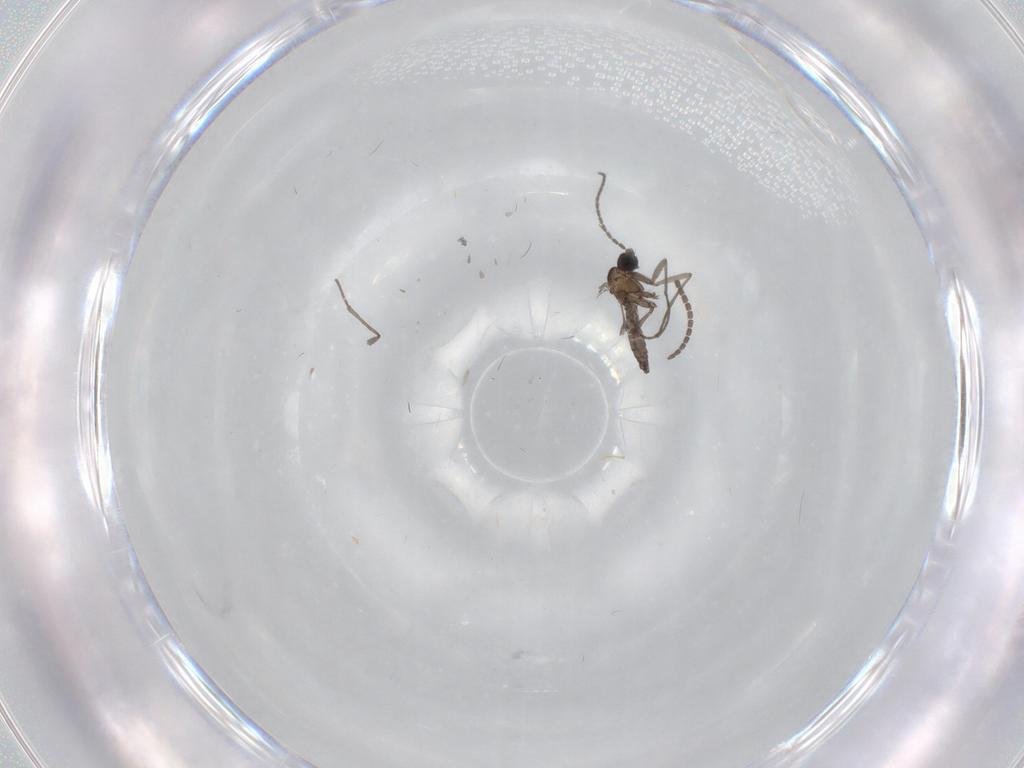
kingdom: Animalia
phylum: Arthropoda
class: Insecta
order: Diptera
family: Sciaridae
